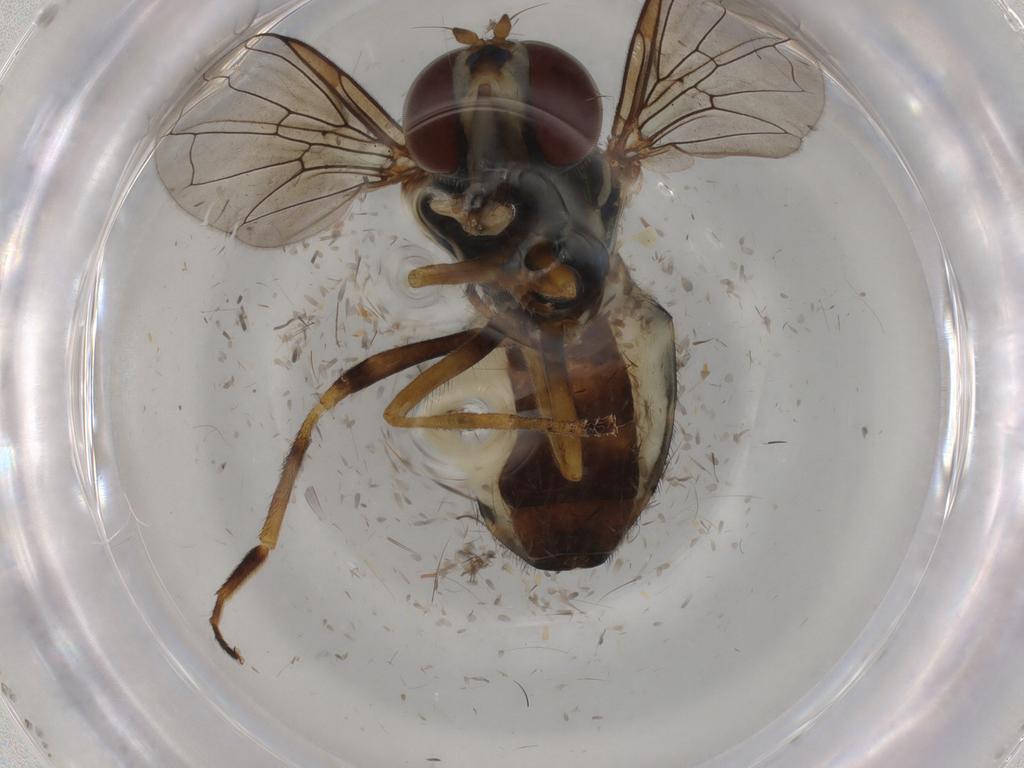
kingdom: Animalia
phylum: Arthropoda
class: Insecta
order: Diptera
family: Syrphidae
